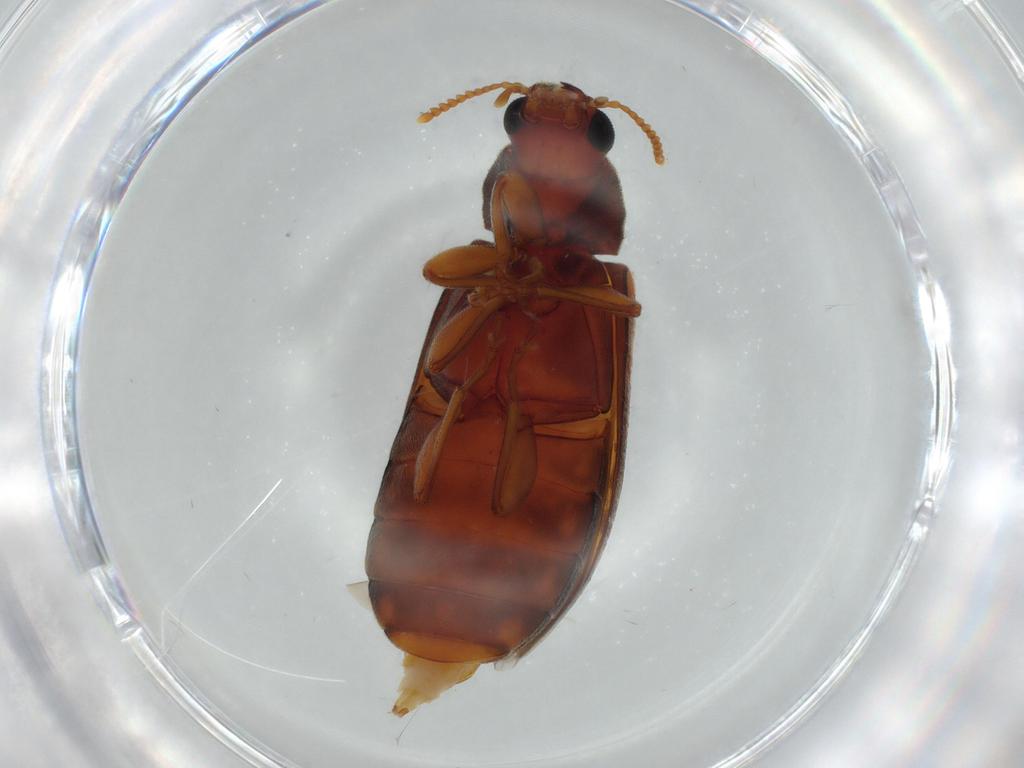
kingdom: Animalia
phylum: Arthropoda
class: Insecta
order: Coleoptera
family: Mycteridae
